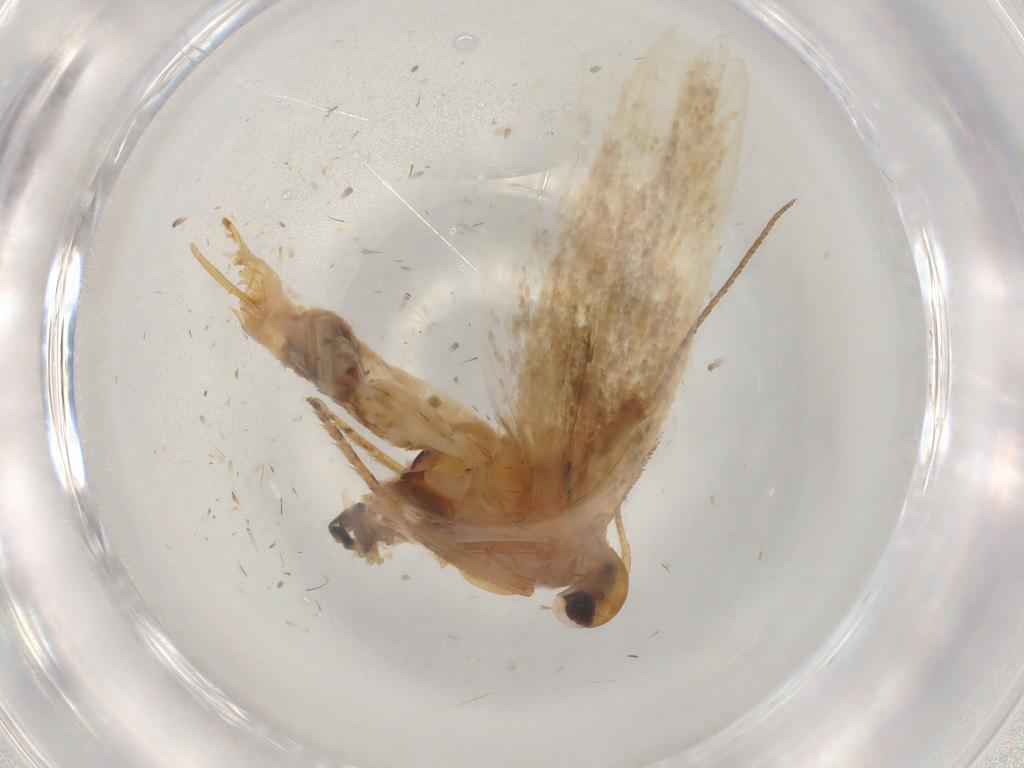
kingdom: Animalia
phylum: Arthropoda
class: Insecta
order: Lepidoptera
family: Gelechiidae
